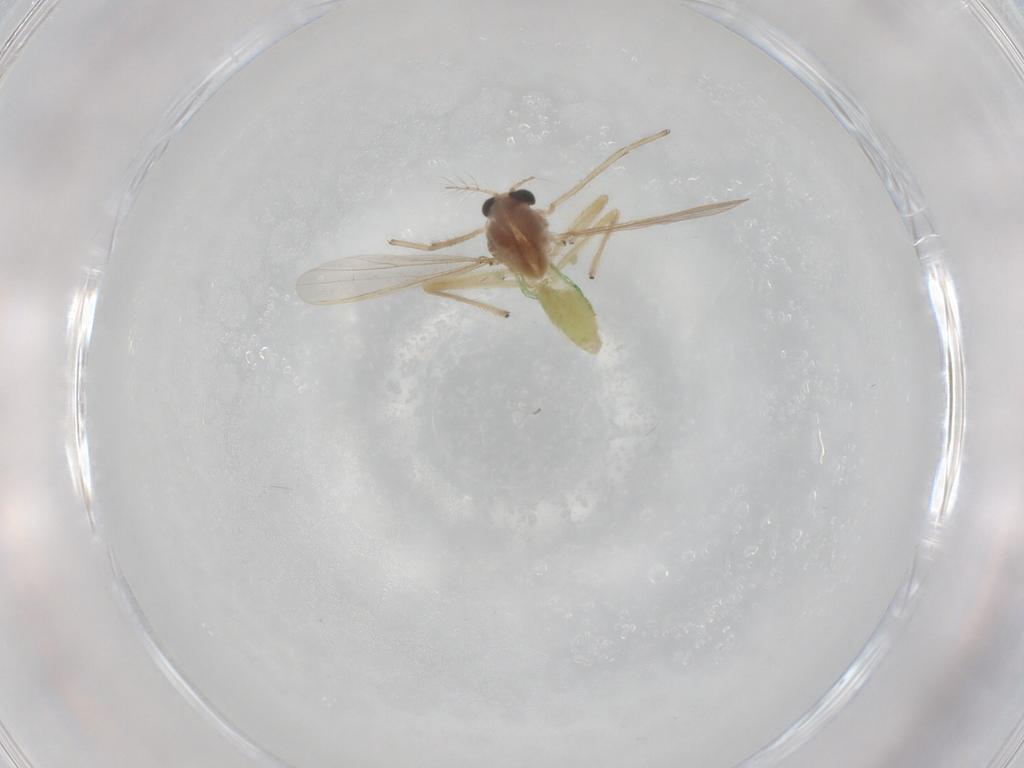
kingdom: Animalia
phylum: Arthropoda
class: Insecta
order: Diptera
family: Chironomidae
